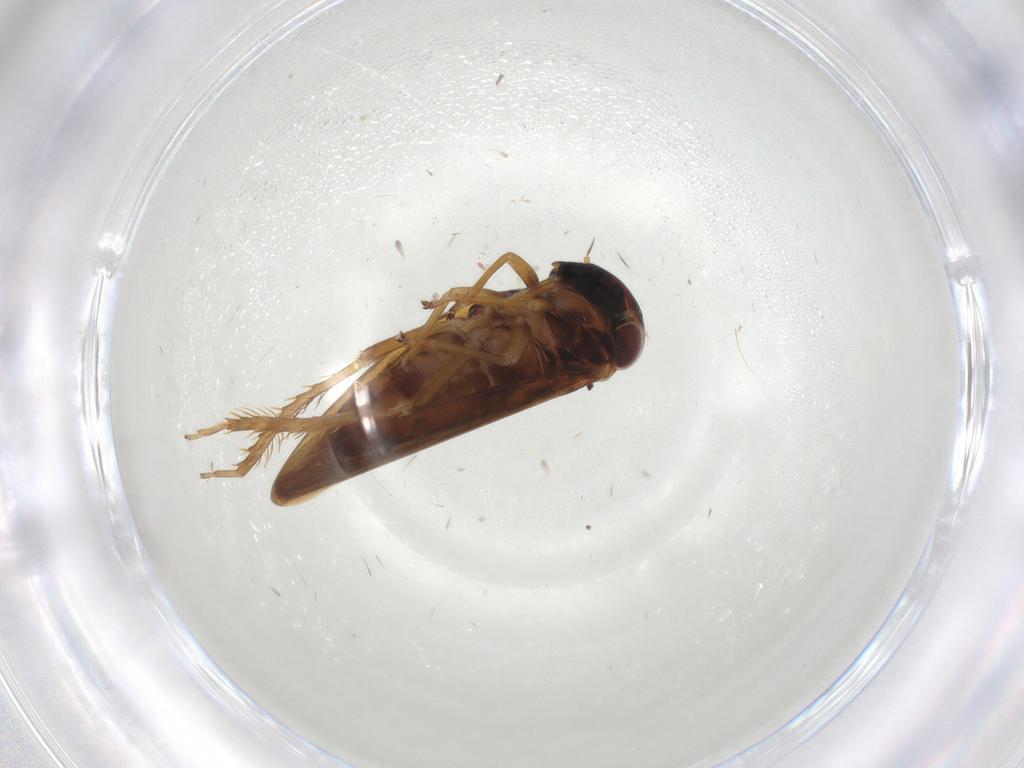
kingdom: Animalia
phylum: Arthropoda
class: Insecta
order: Hemiptera
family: Cicadellidae
